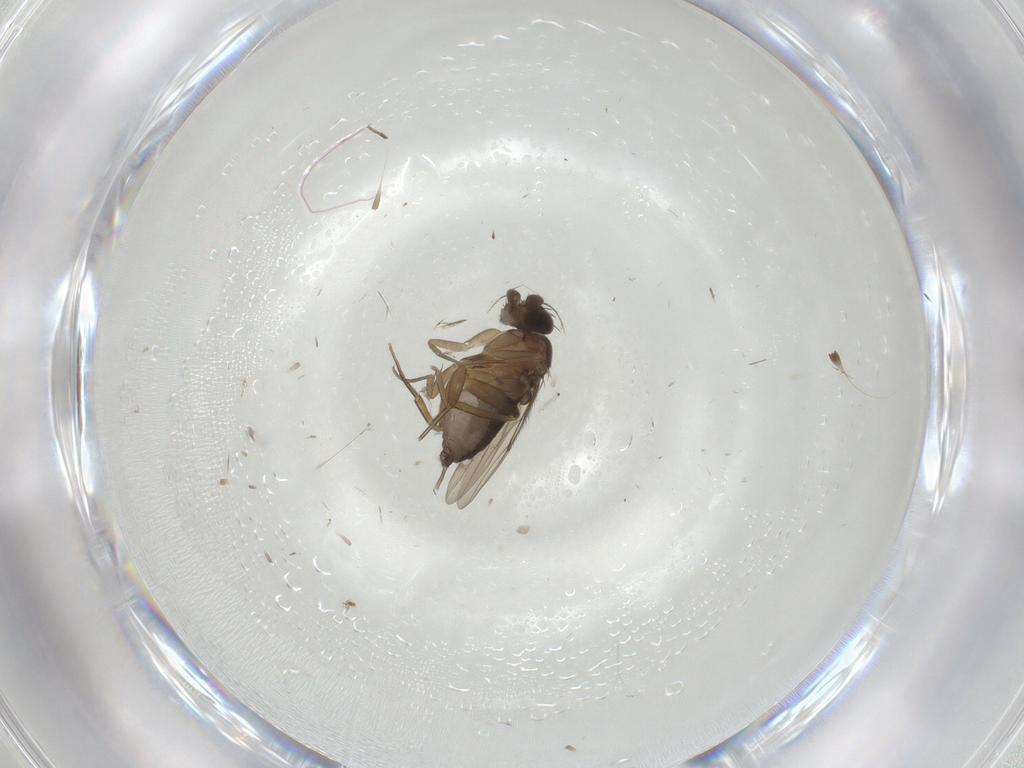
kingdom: Animalia
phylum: Arthropoda
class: Insecta
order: Diptera
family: Phoridae
